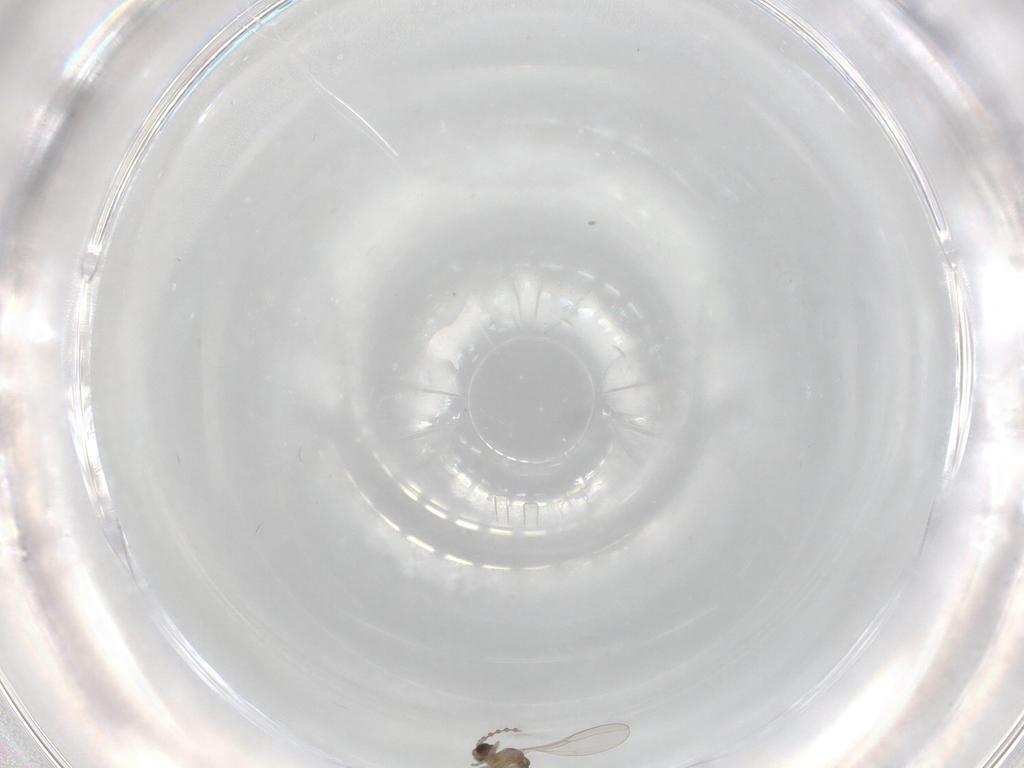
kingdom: Animalia
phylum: Arthropoda
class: Insecta
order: Diptera
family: Cecidomyiidae
